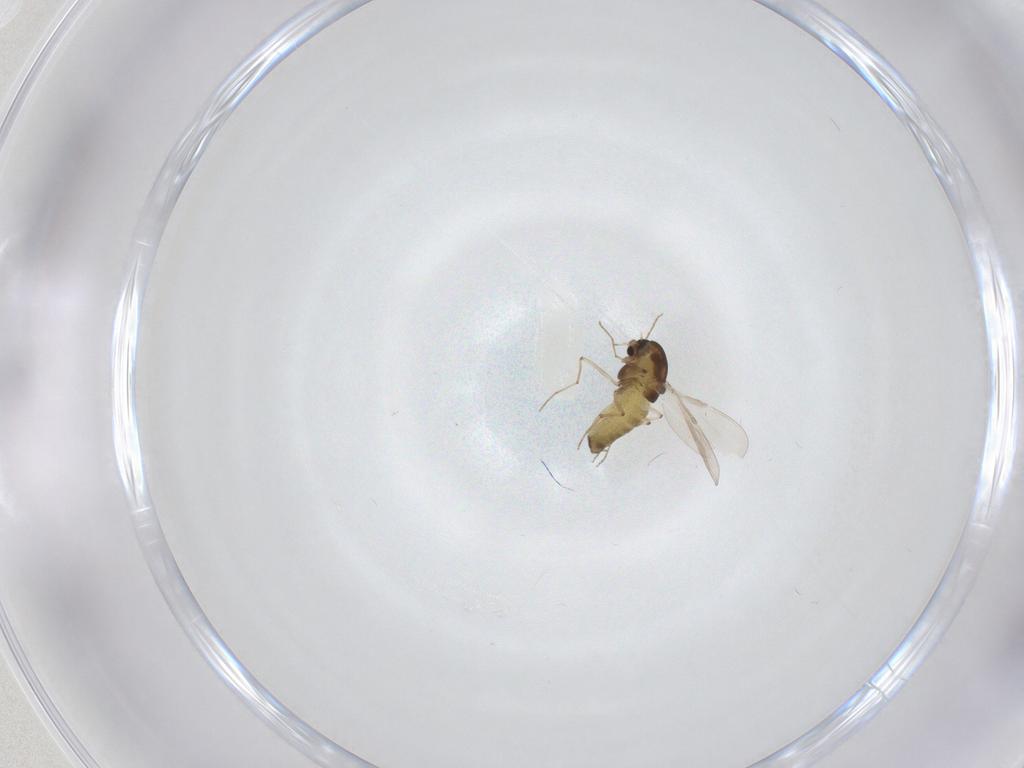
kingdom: Animalia
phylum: Arthropoda
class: Insecta
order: Diptera
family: Chironomidae
